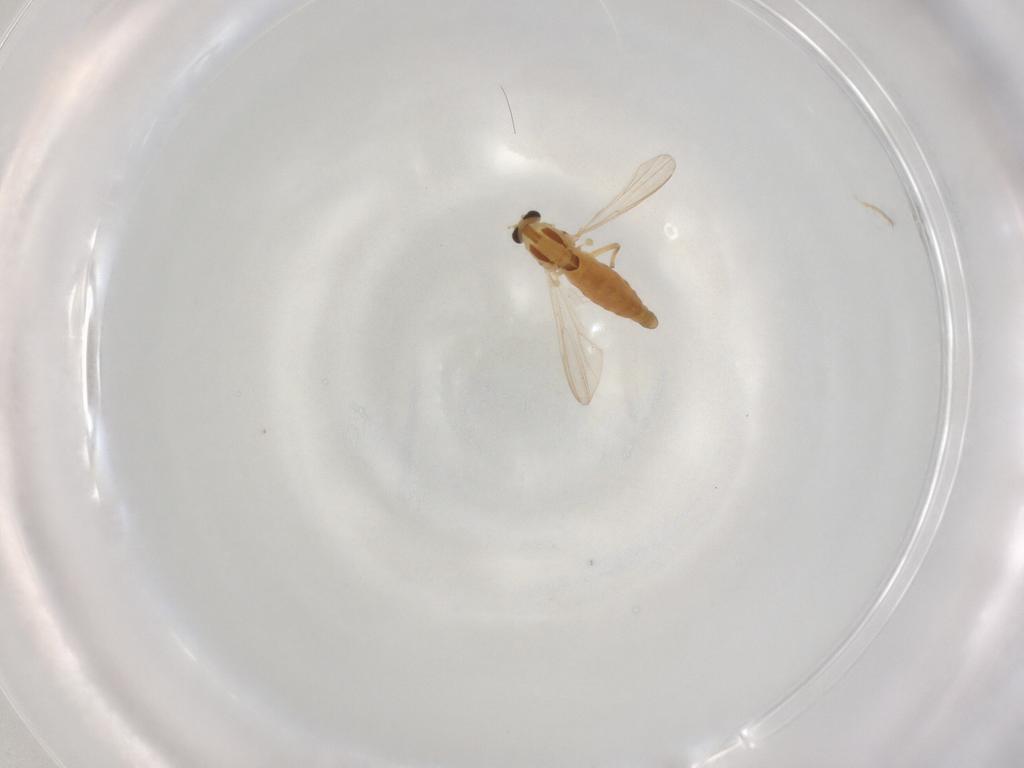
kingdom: Animalia
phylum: Arthropoda
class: Insecta
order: Diptera
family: Chironomidae
